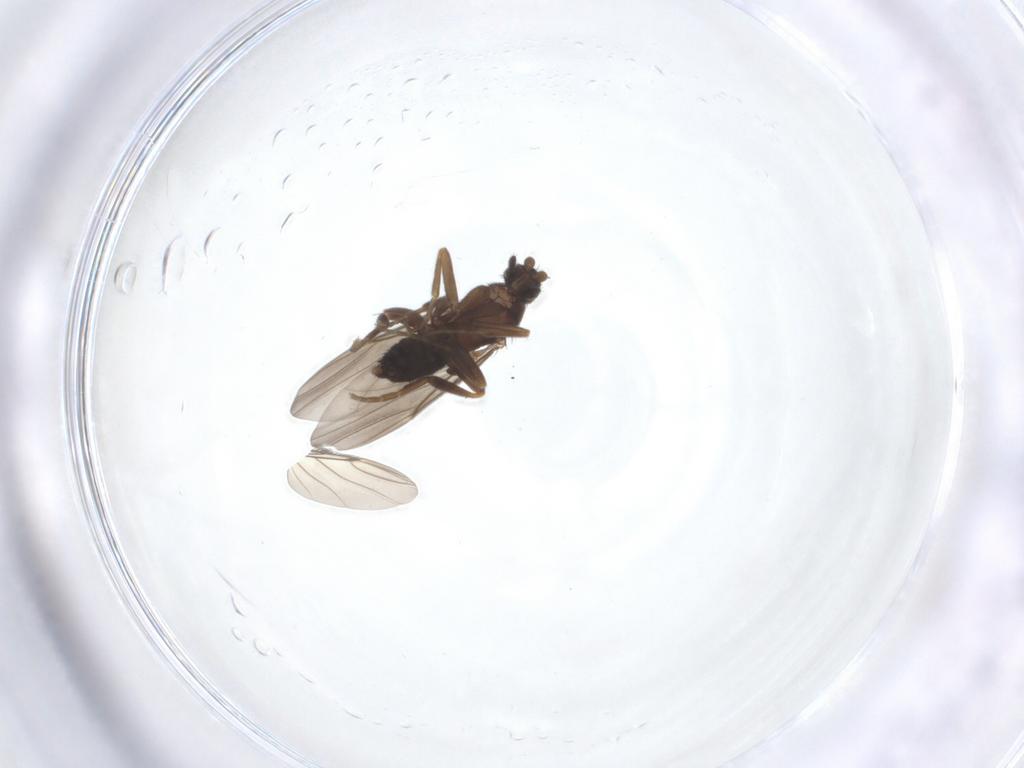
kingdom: Animalia
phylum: Arthropoda
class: Insecta
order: Diptera
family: Phoridae
